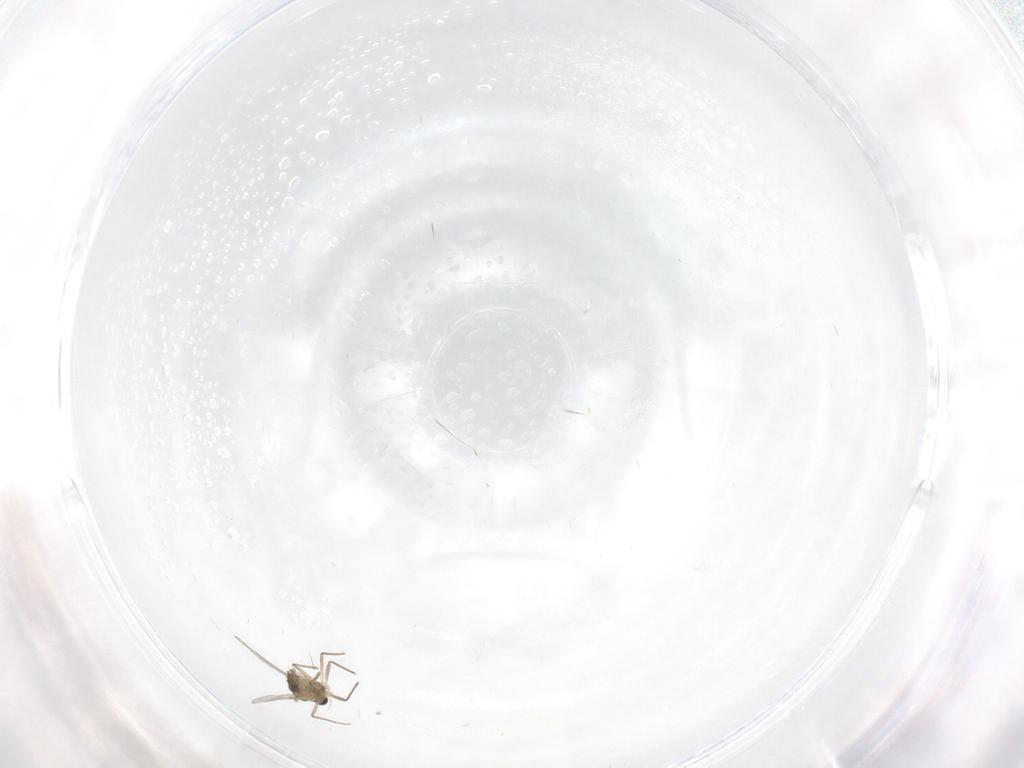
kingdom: Animalia
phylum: Arthropoda
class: Insecta
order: Diptera
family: Chironomidae
